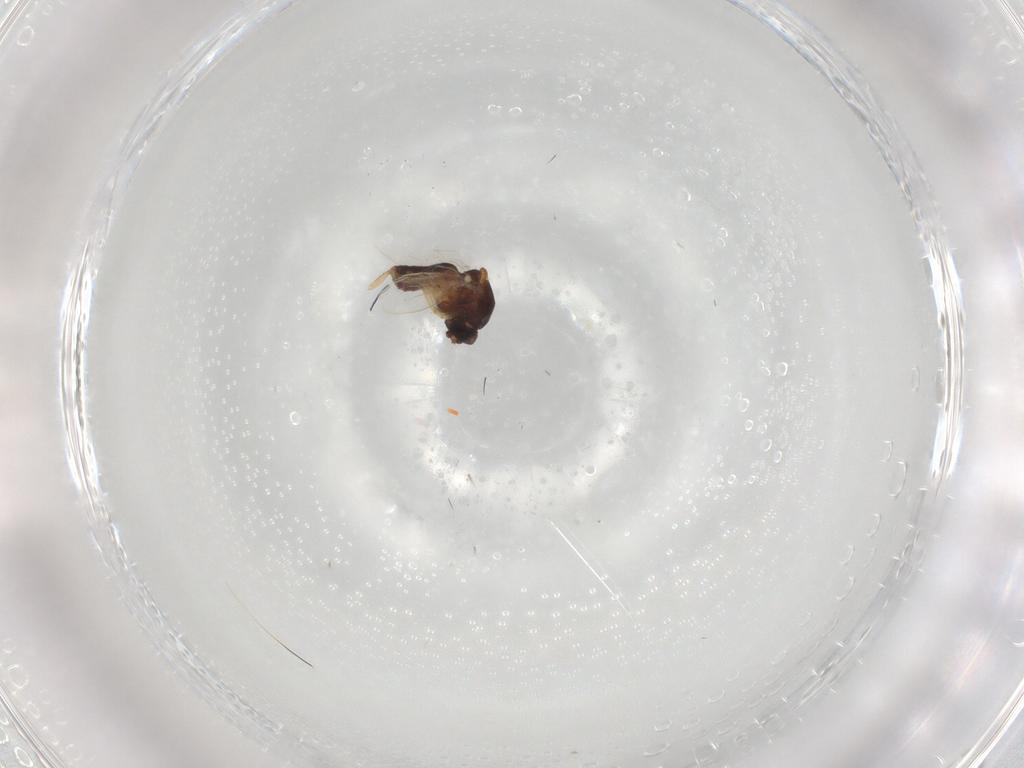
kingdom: Animalia
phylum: Arthropoda
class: Insecta
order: Diptera
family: Ceratopogonidae
